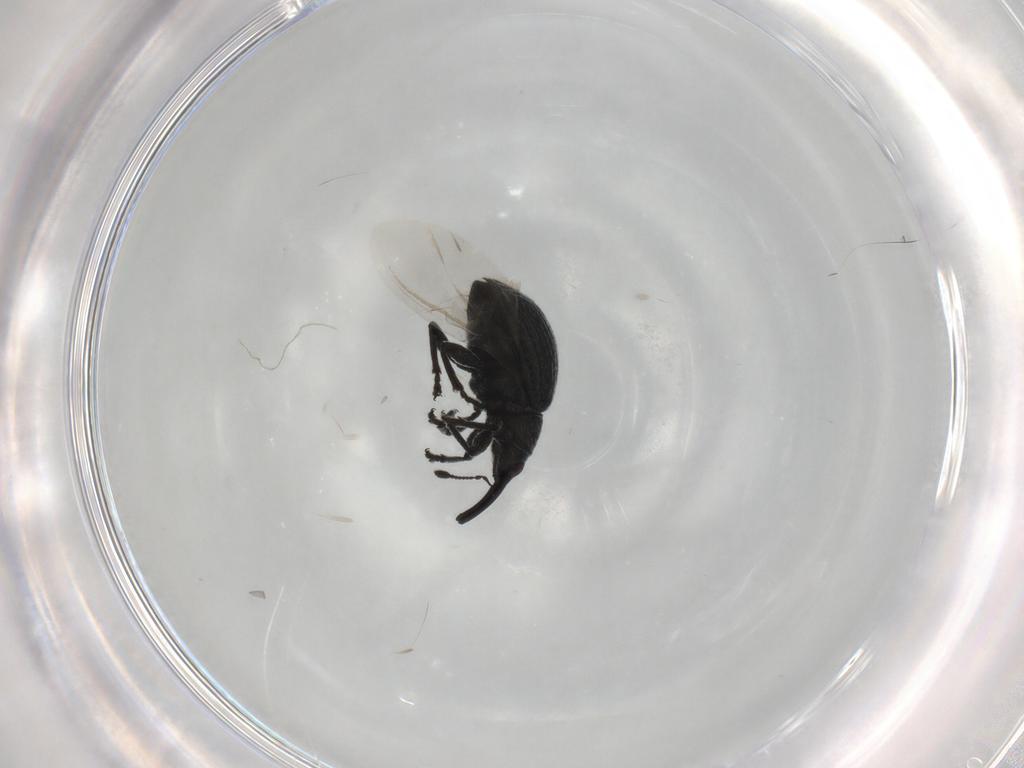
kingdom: Animalia
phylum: Arthropoda
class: Insecta
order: Coleoptera
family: Brentidae
